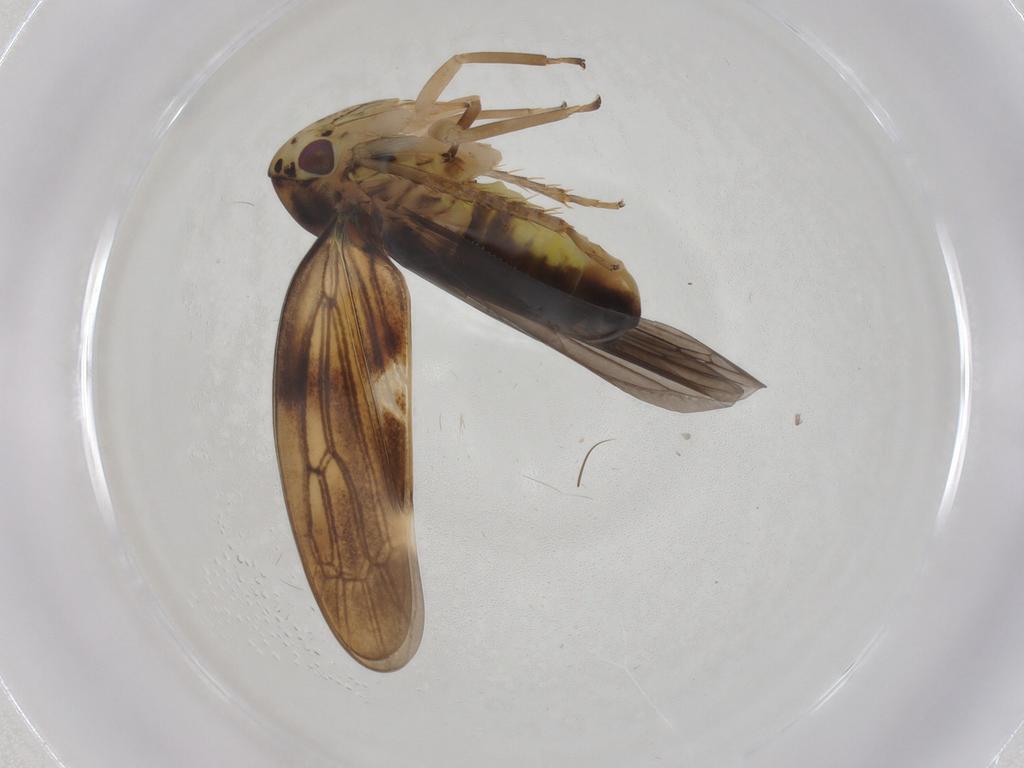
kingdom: Animalia
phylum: Arthropoda
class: Insecta
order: Hemiptera
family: Cicadellidae
